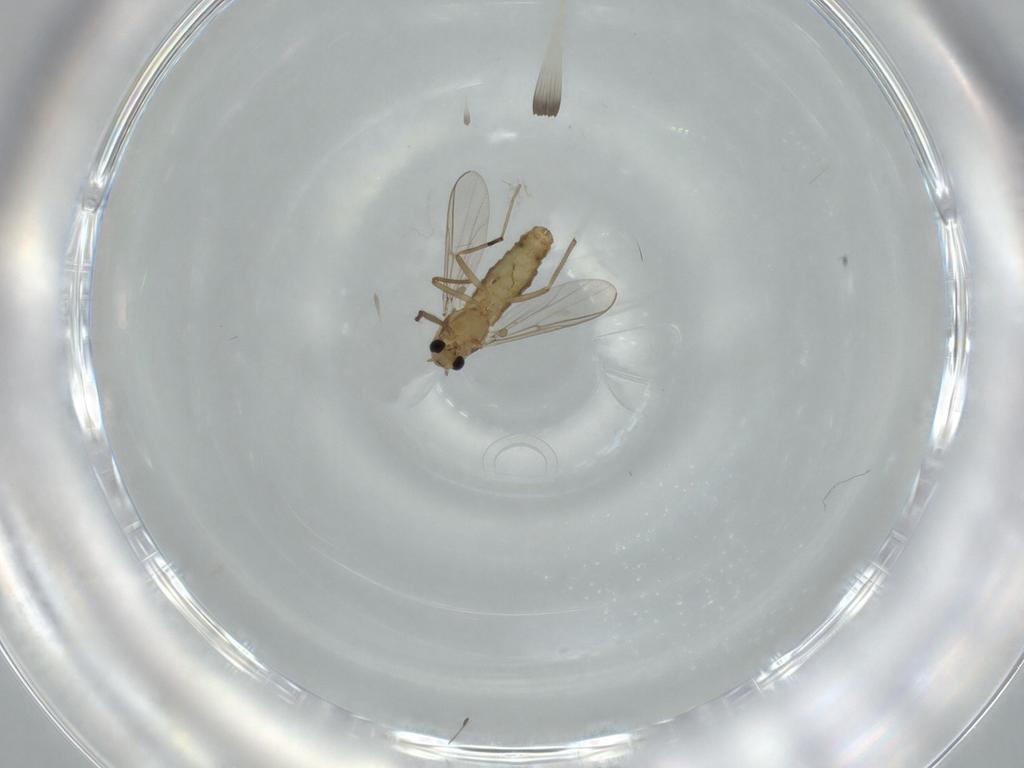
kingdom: Animalia
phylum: Arthropoda
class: Insecta
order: Diptera
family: Chironomidae
